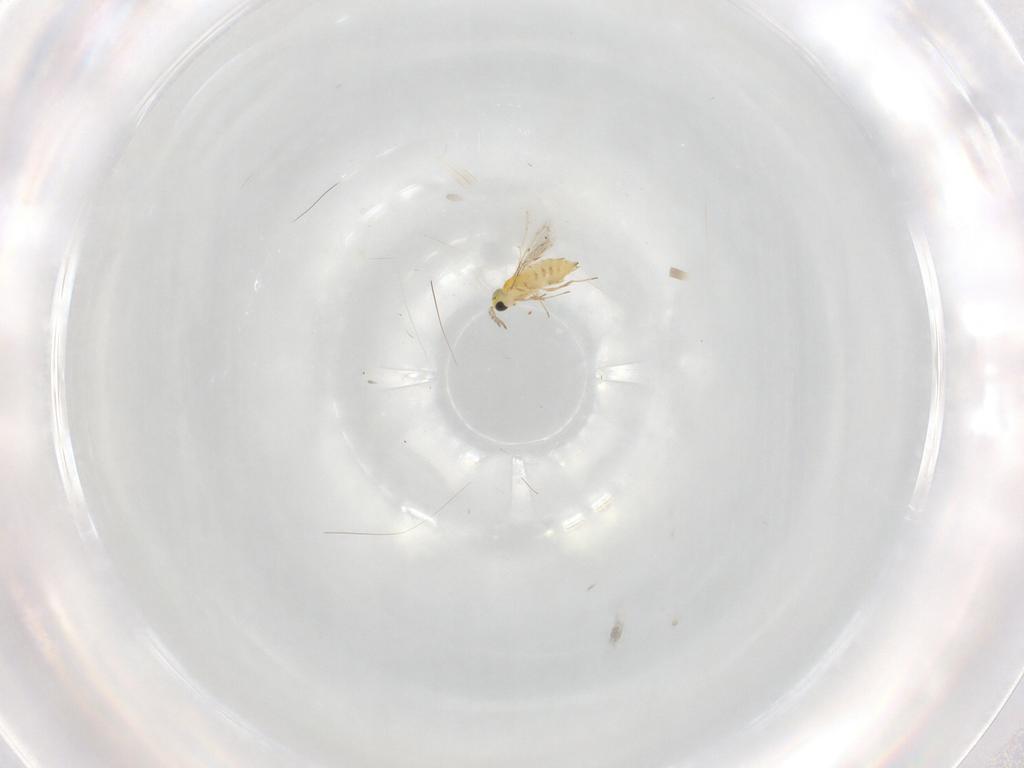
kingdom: Animalia
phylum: Arthropoda
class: Insecta
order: Hymenoptera
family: Trichogrammatidae
